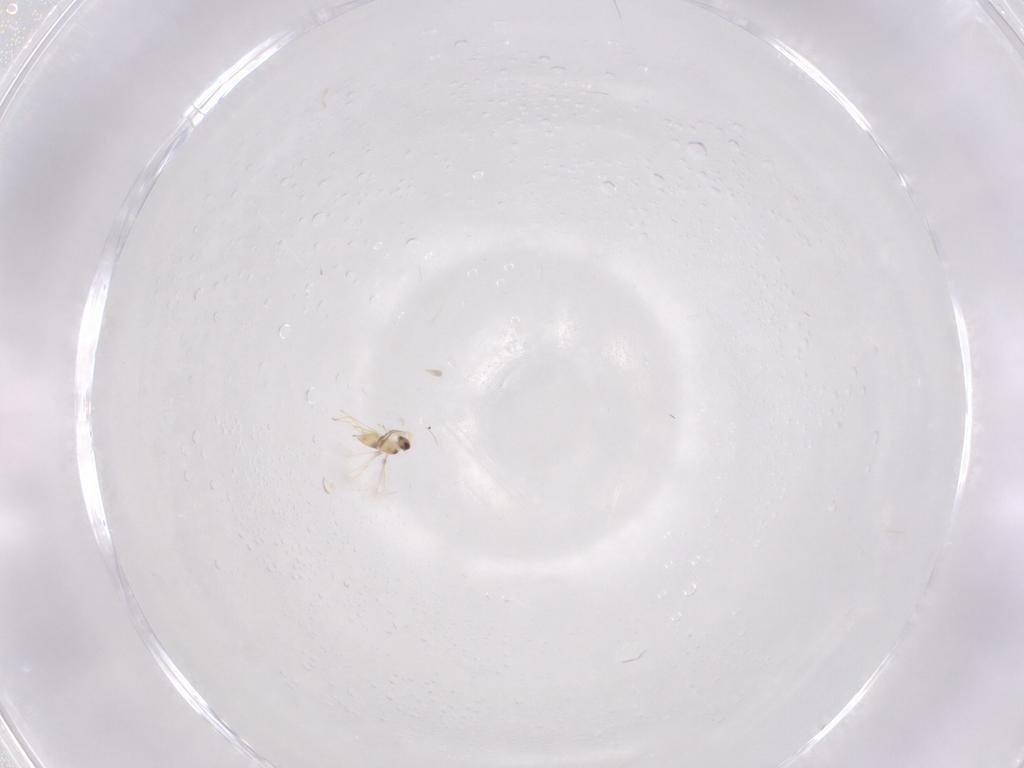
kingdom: Animalia
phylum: Arthropoda
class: Insecta
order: Hymenoptera
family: Mymaridae
